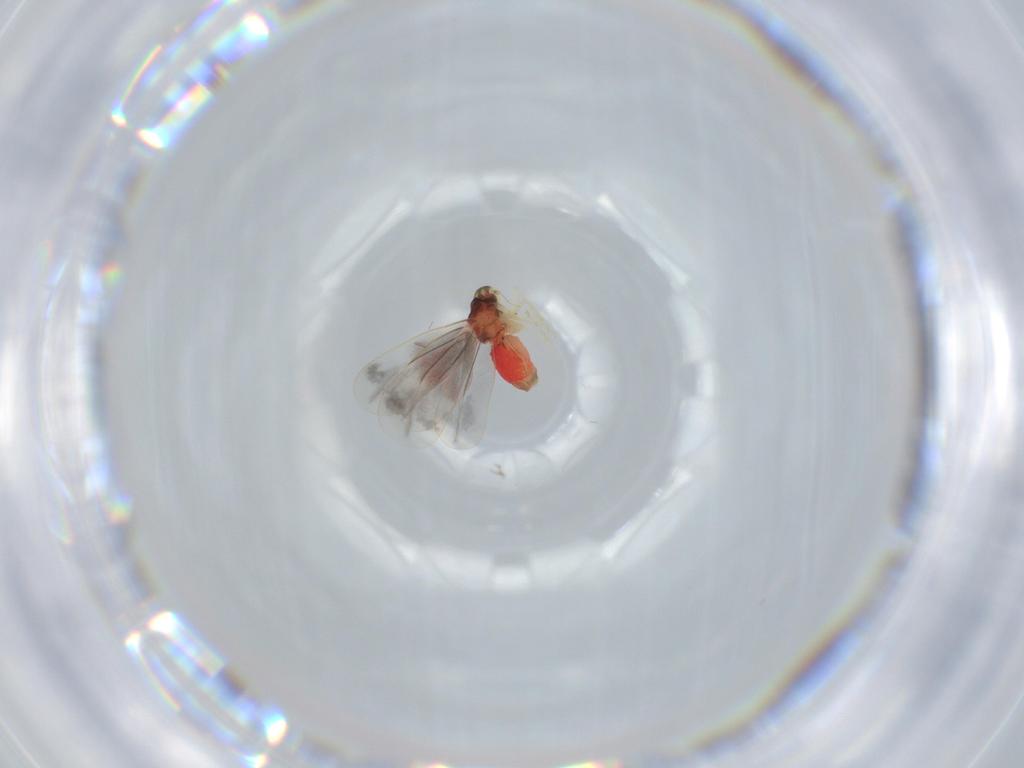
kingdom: Animalia
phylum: Arthropoda
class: Insecta
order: Hemiptera
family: Aleyrodidae
